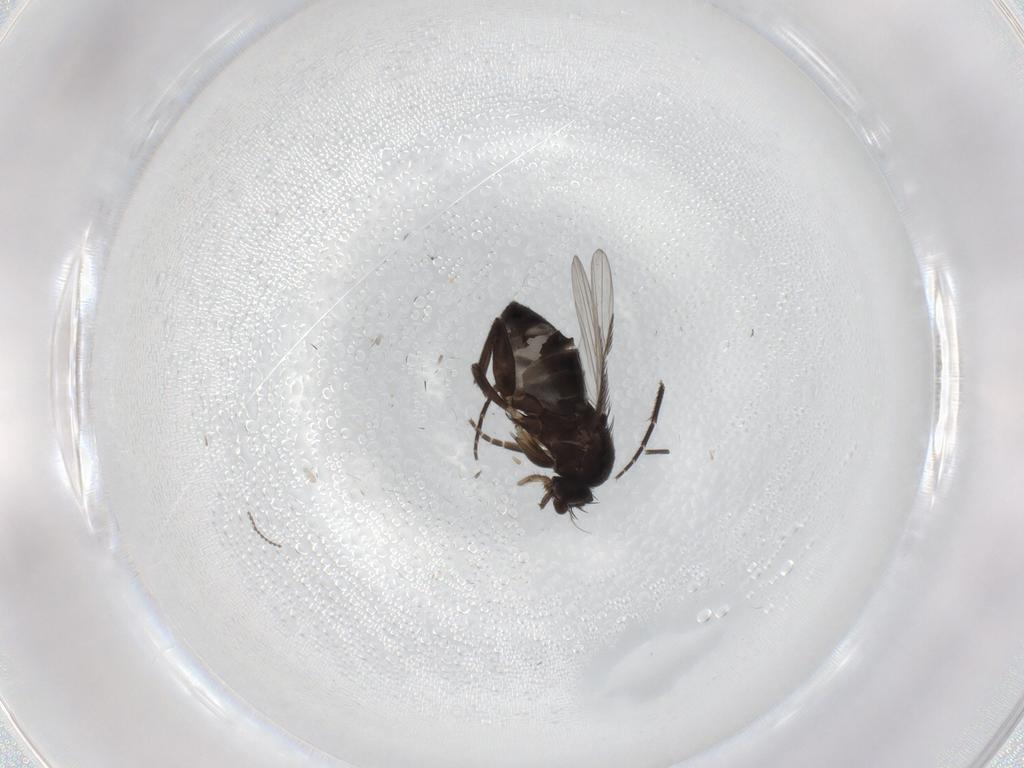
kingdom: Animalia
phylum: Arthropoda
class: Insecta
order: Diptera
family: Phoridae
